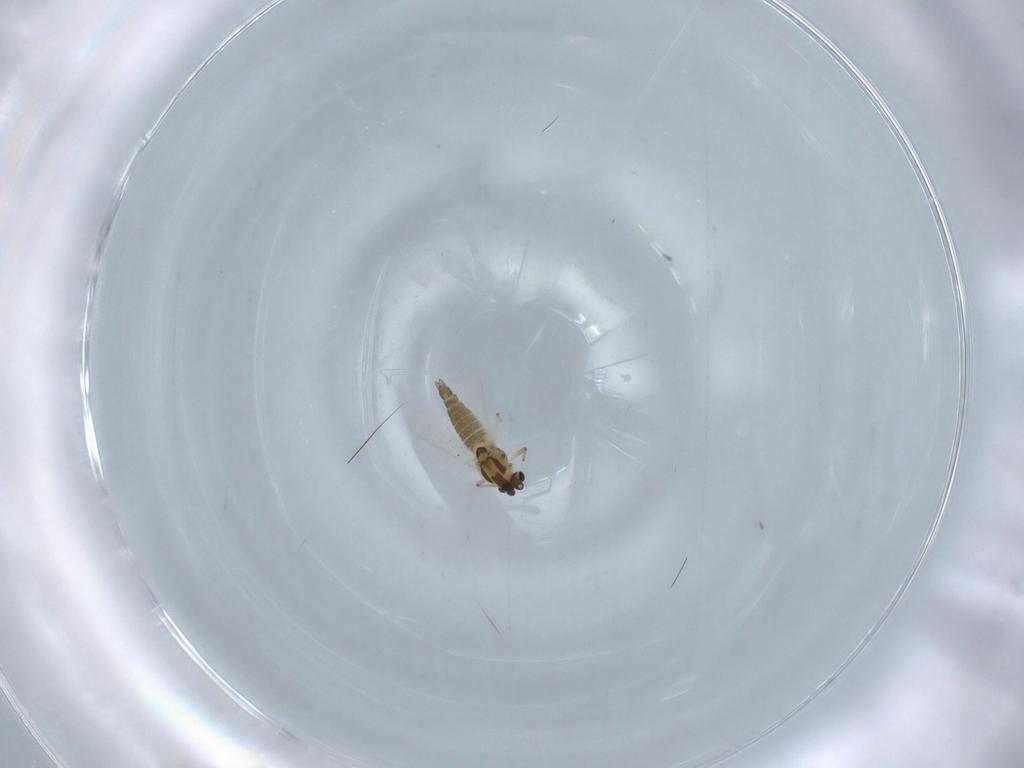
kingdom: Animalia
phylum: Arthropoda
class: Insecta
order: Diptera
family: Chironomidae
